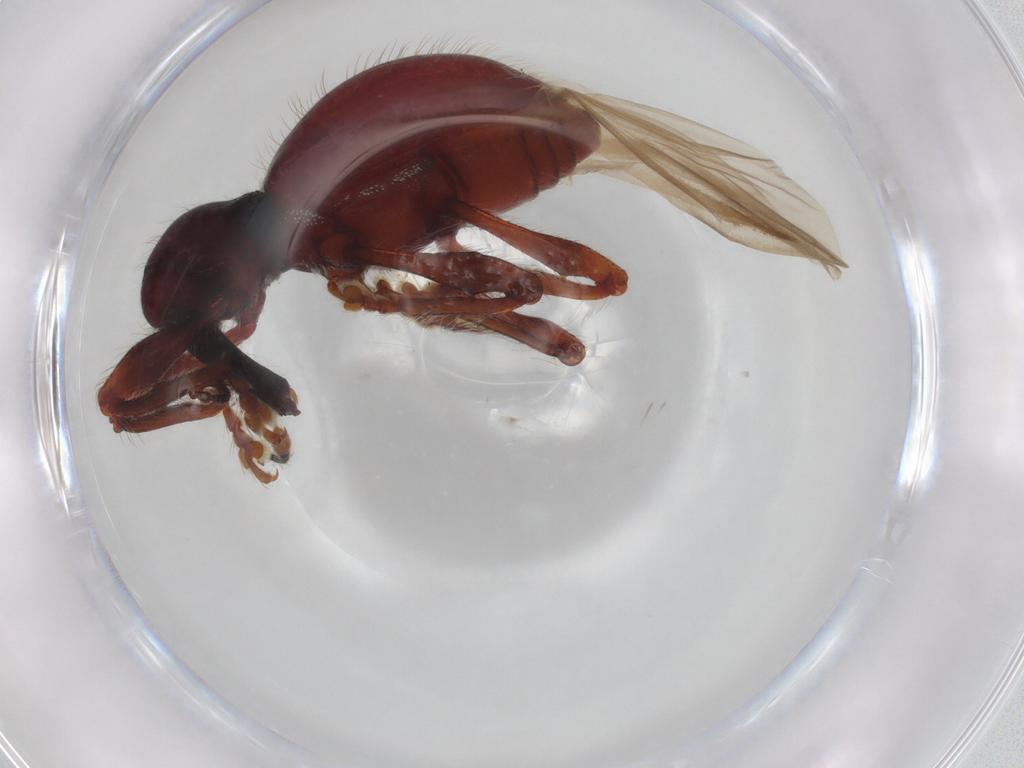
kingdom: Animalia
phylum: Arthropoda
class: Insecta
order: Coleoptera
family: Curculionidae
